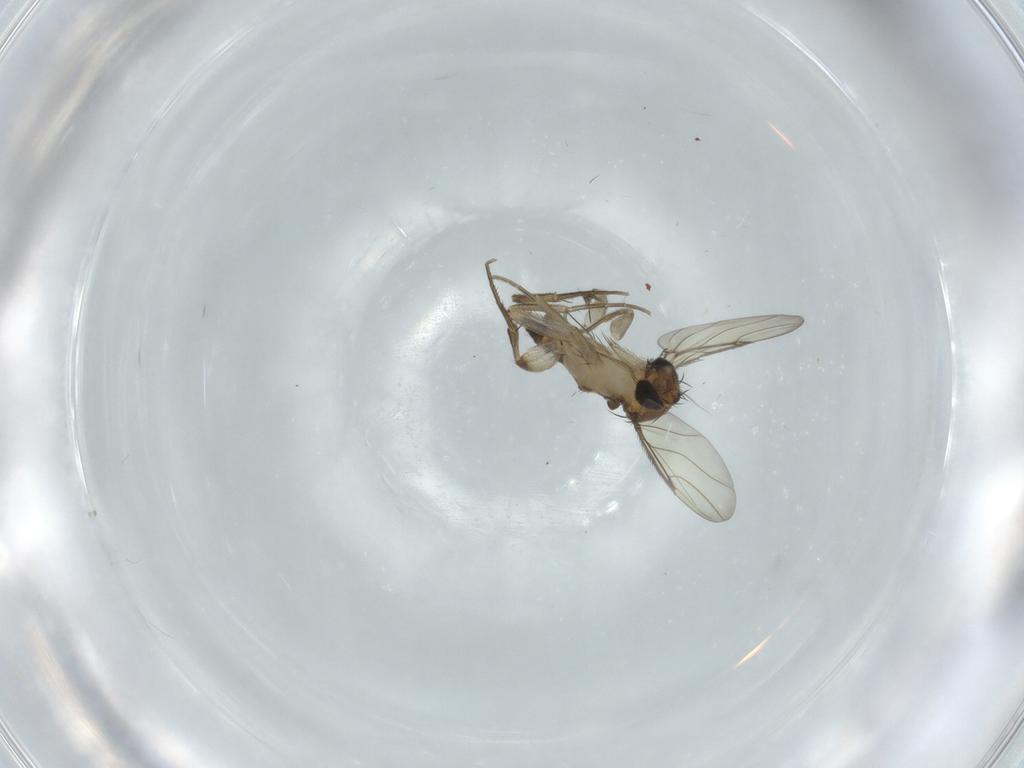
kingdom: Animalia
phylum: Arthropoda
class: Insecta
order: Diptera
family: Phoridae
